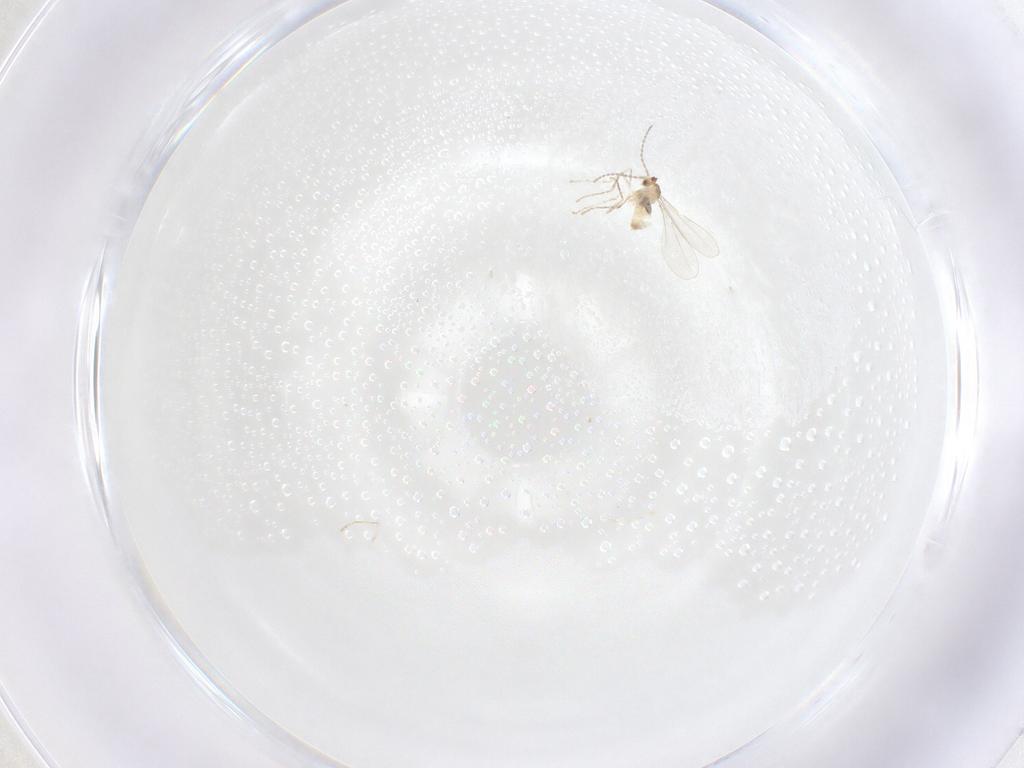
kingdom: Animalia
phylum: Arthropoda
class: Insecta
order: Diptera
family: Cecidomyiidae
